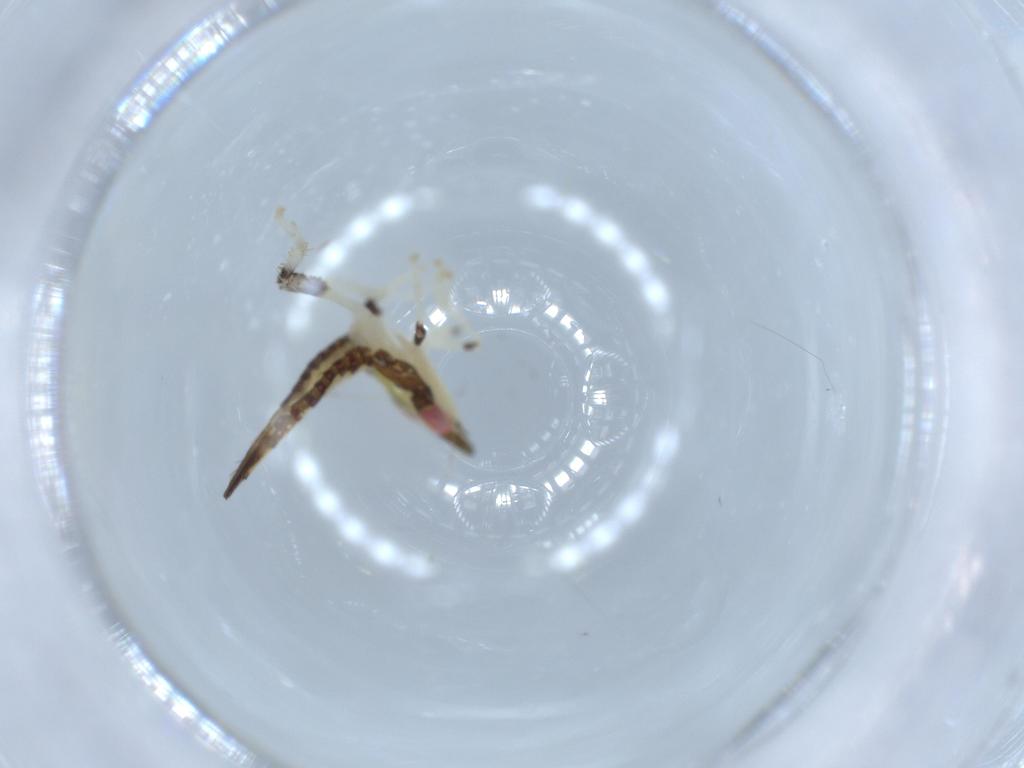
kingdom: Animalia
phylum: Arthropoda
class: Insecta
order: Hemiptera
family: Cicadellidae
